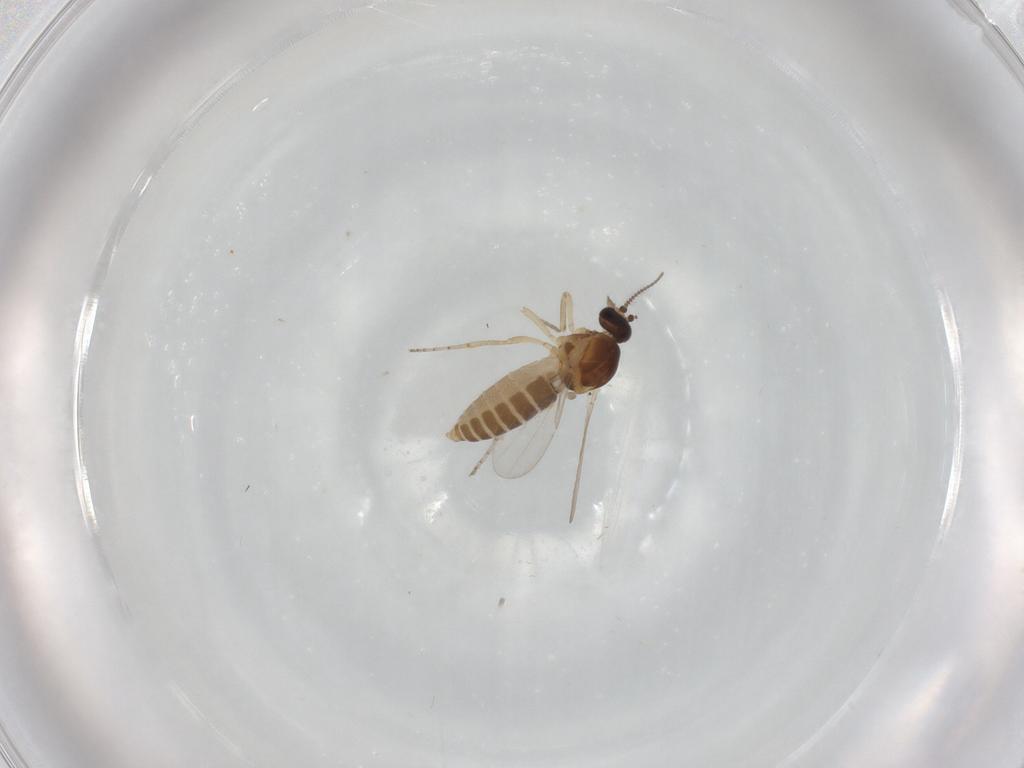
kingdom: Animalia
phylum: Arthropoda
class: Insecta
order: Diptera
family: Ceratopogonidae
